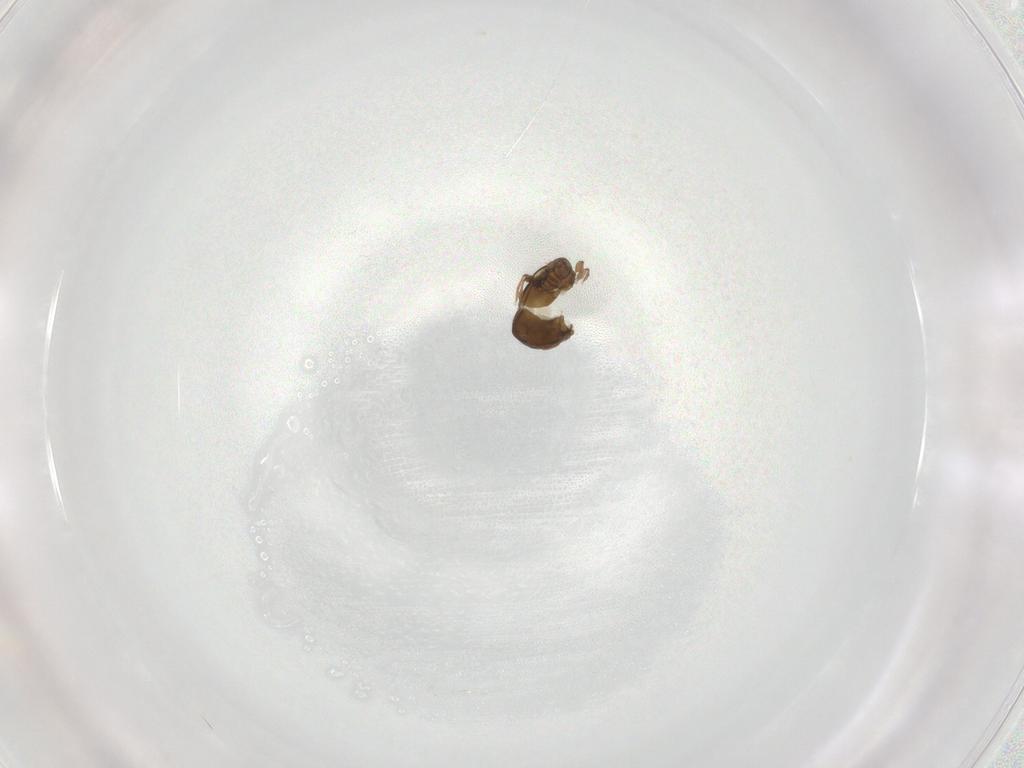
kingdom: Animalia
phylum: Arthropoda
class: Arachnida
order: Sarcoptiformes
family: Oribatulidae
